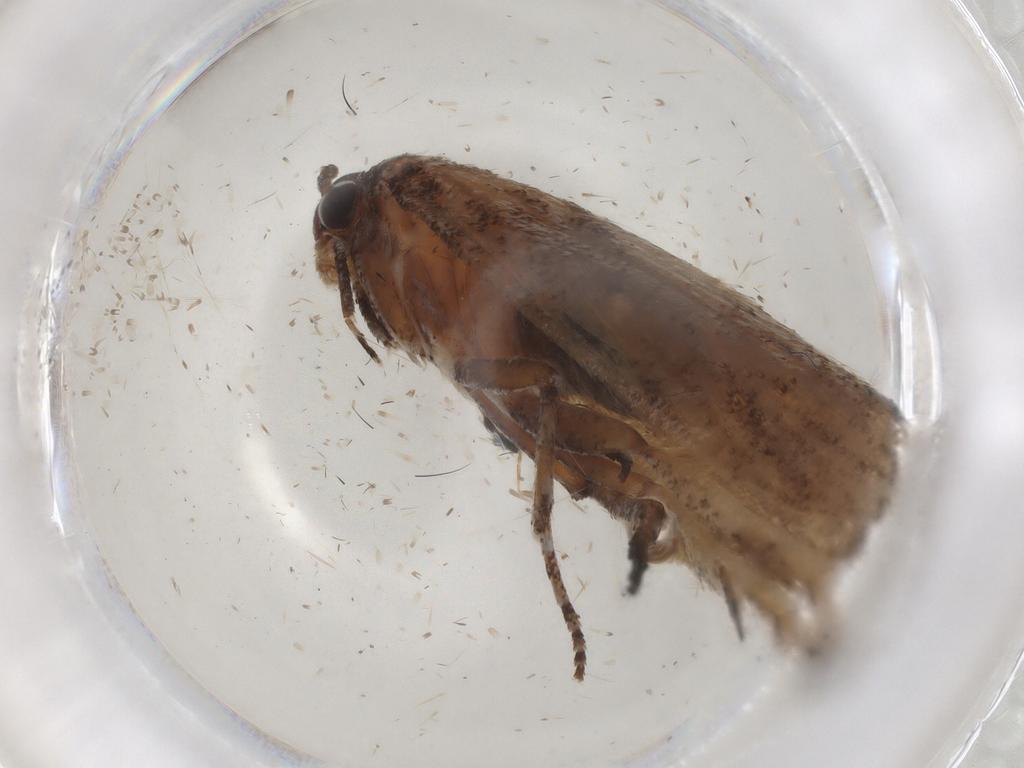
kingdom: Animalia
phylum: Arthropoda
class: Insecta
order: Lepidoptera
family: Cosmopterigidae
